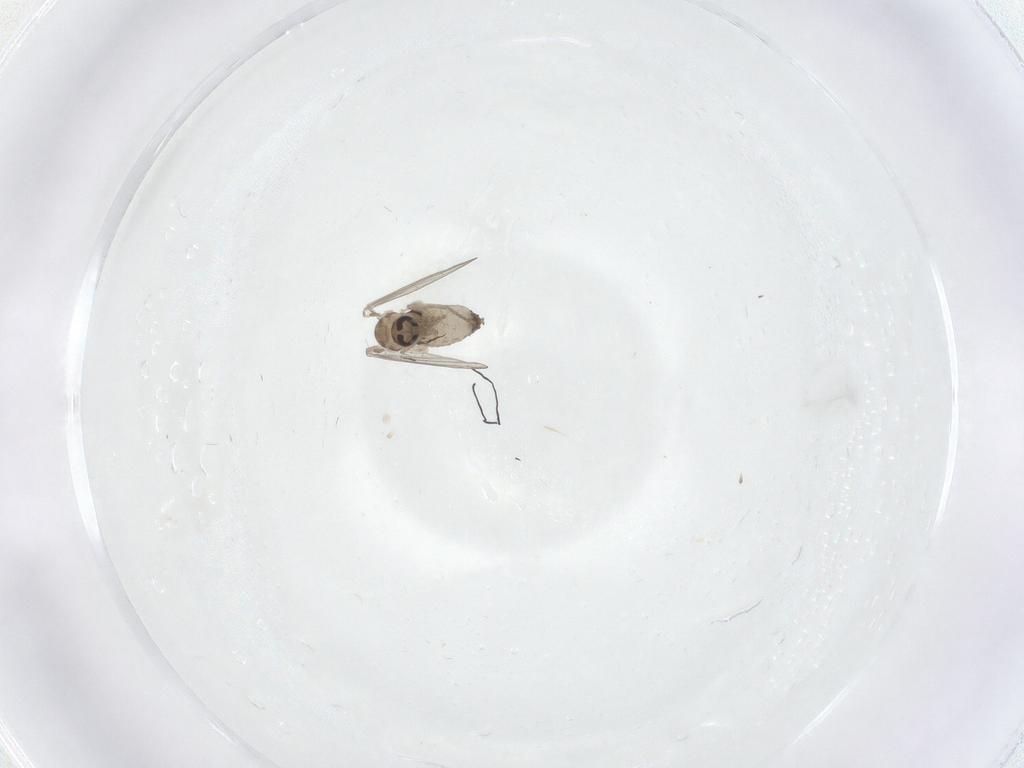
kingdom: Animalia
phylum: Arthropoda
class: Insecta
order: Diptera
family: Psychodidae
